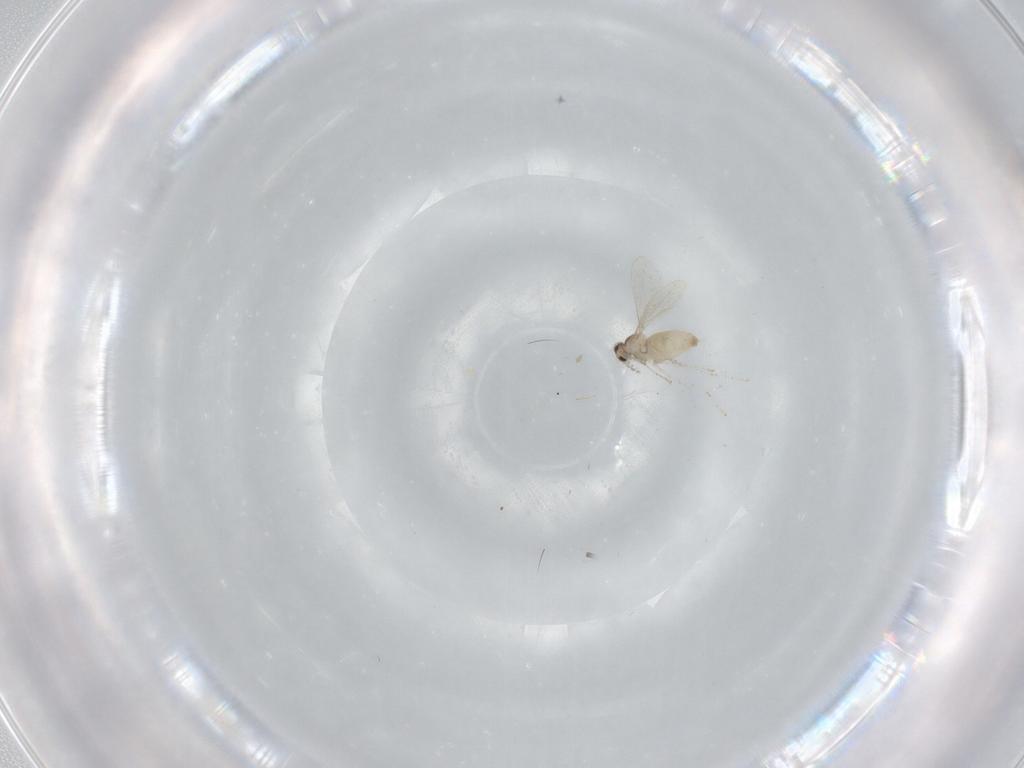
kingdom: Animalia
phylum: Arthropoda
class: Insecta
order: Diptera
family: Cecidomyiidae
